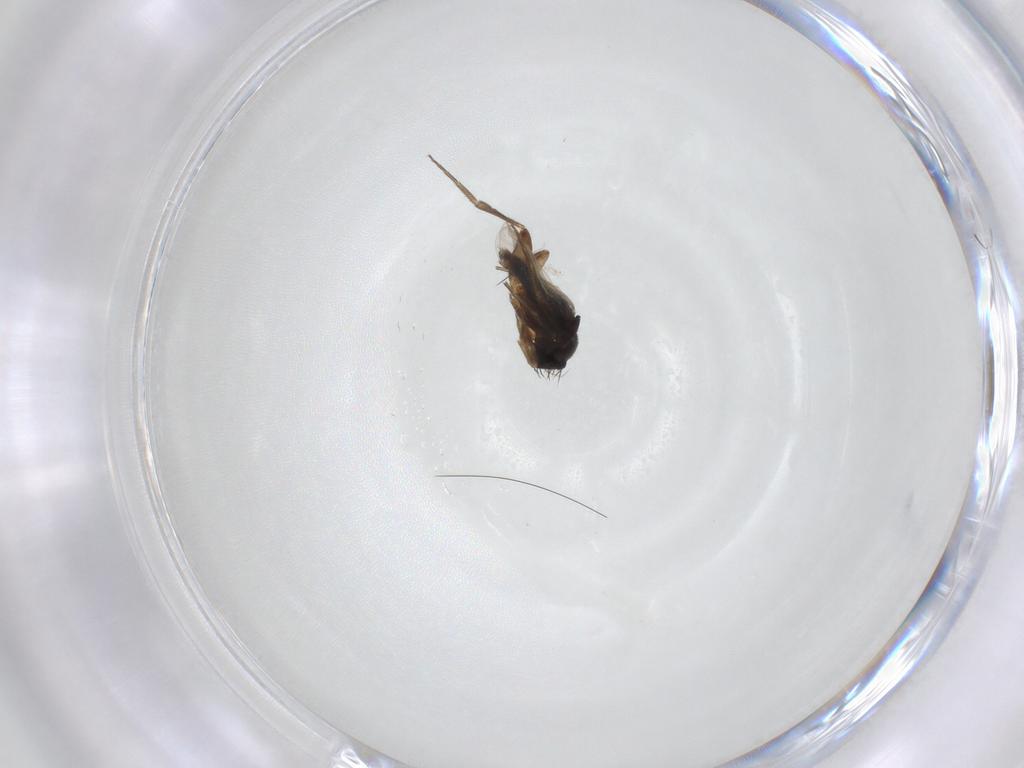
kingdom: Animalia
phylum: Arthropoda
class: Insecta
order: Diptera
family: Phoridae
